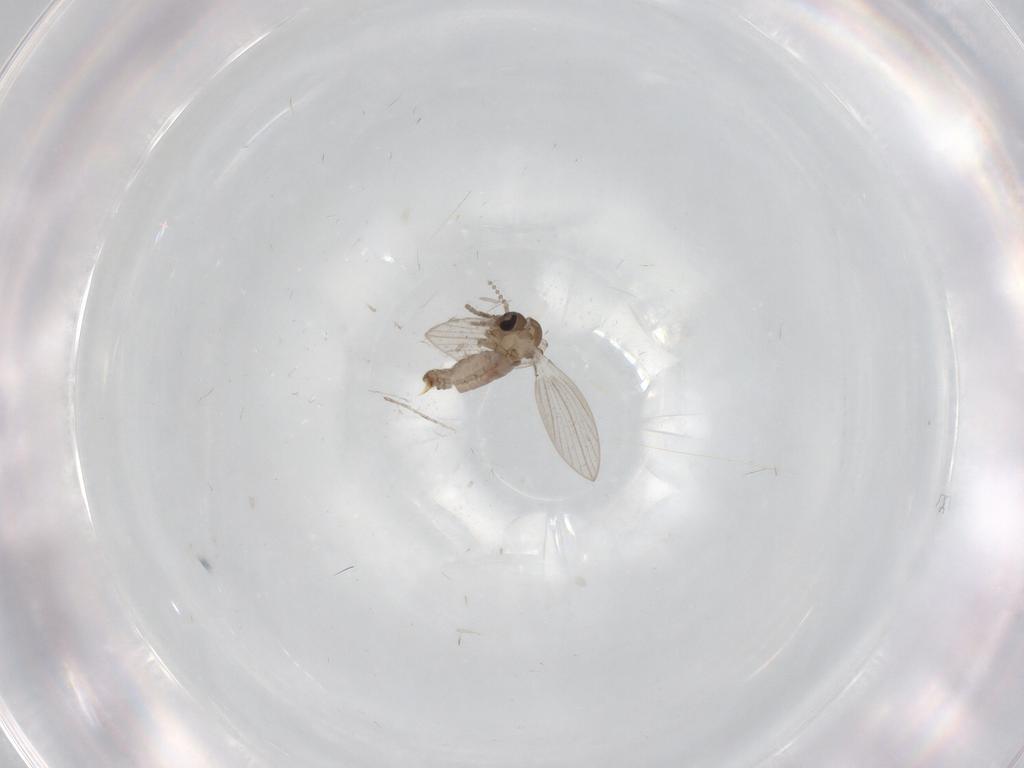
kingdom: Animalia
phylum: Arthropoda
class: Insecta
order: Diptera
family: Psychodidae
